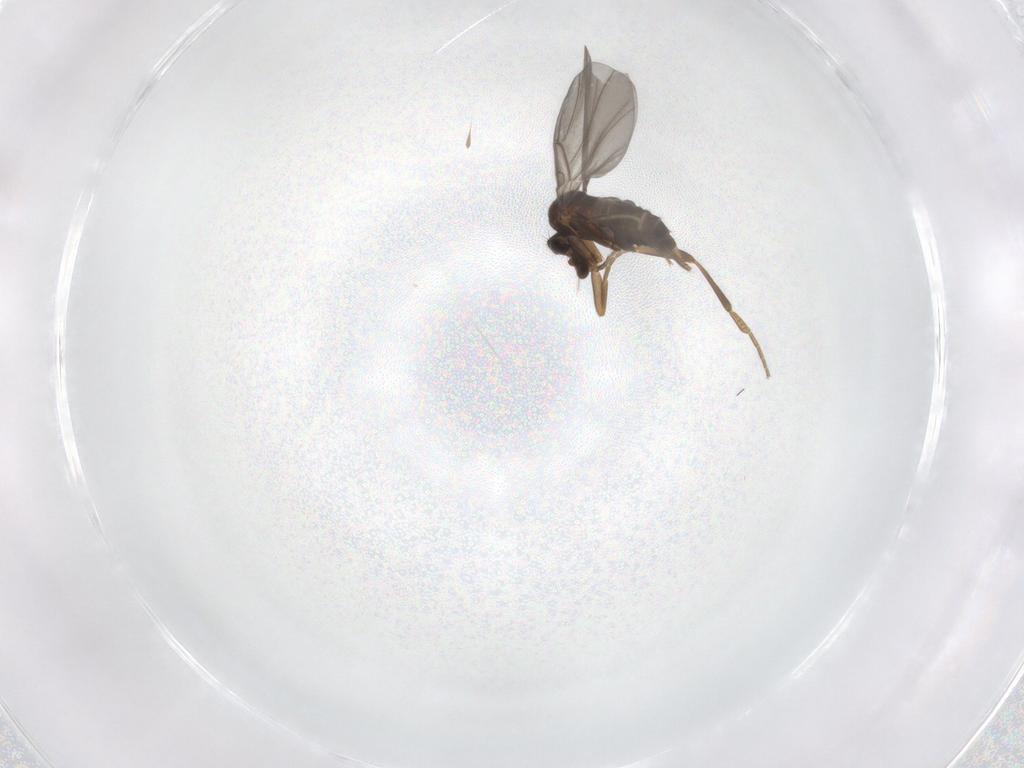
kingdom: Animalia
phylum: Arthropoda
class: Insecta
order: Diptera
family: Phoridae
